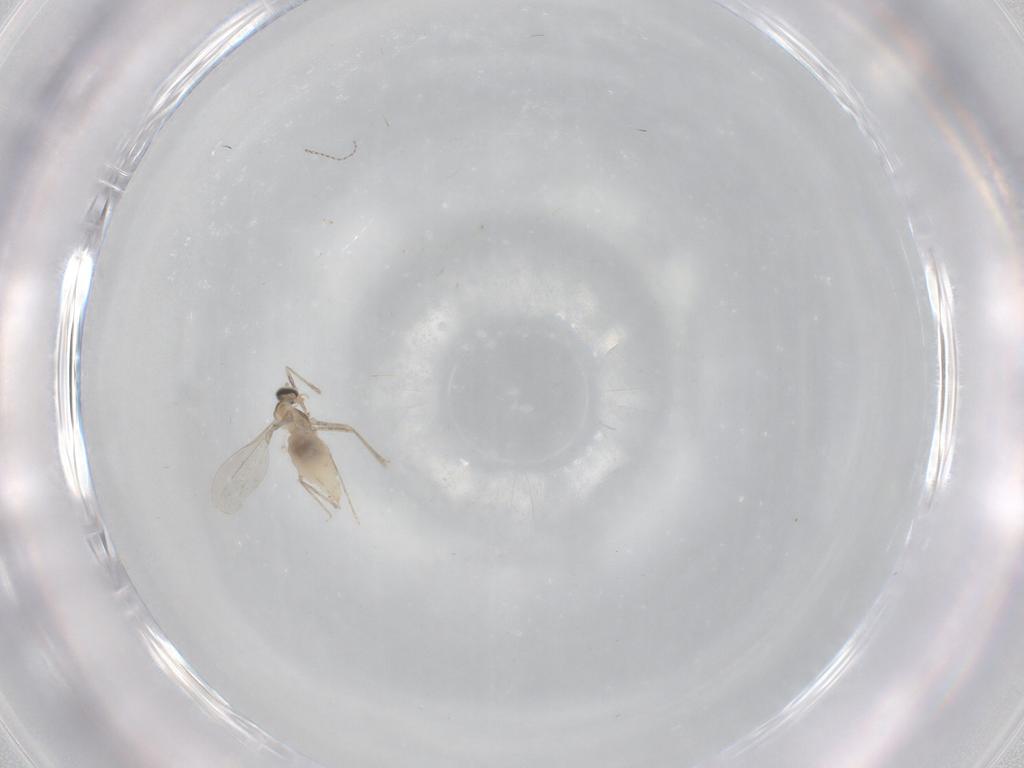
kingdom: Animalia
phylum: Arthropoda
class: Insecta
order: Diptera
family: Cecidomyiidae
